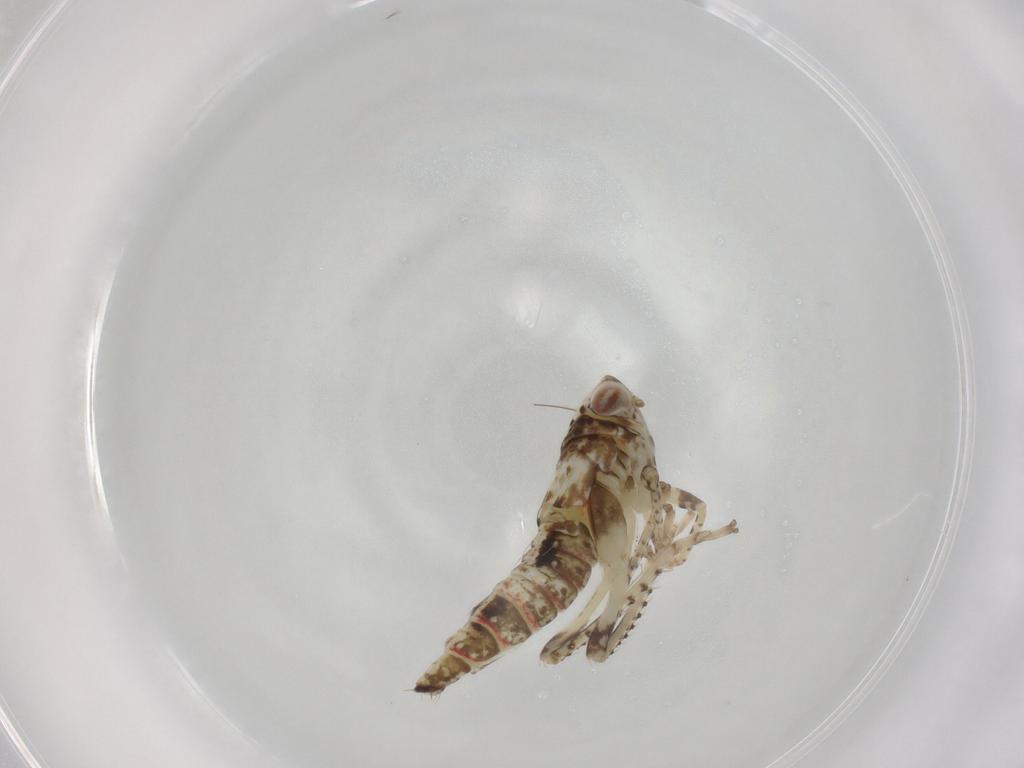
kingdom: Animalia
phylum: Arthropoda
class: Insecta
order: Hemiptera
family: Cicadellidae
